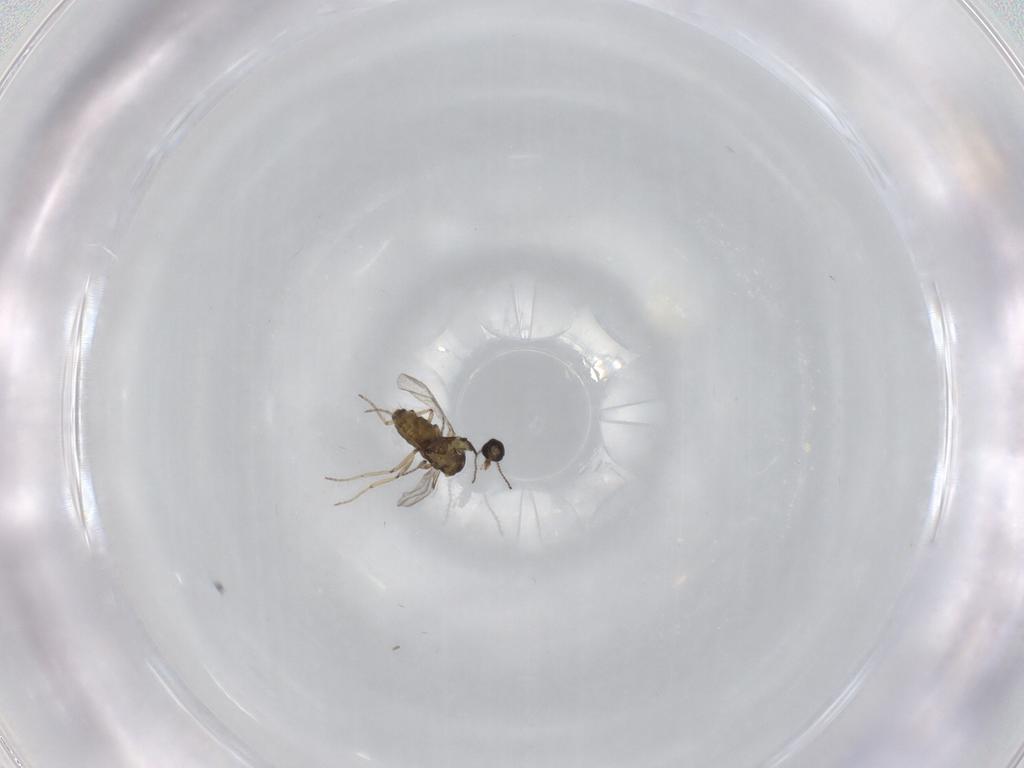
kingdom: Animalia
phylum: Arthropoda
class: Insecta
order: Diptera
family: Ceratopogonidae
